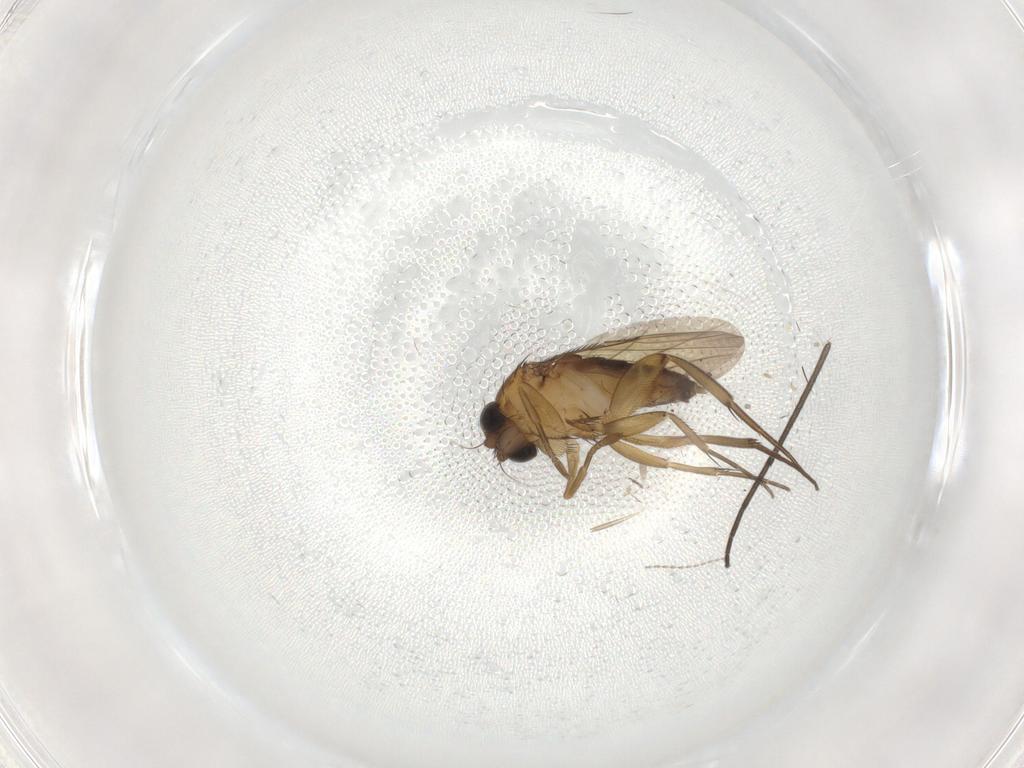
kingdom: Animalia
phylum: Arthropoda
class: Insecta
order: Diptera
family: Phoridae
